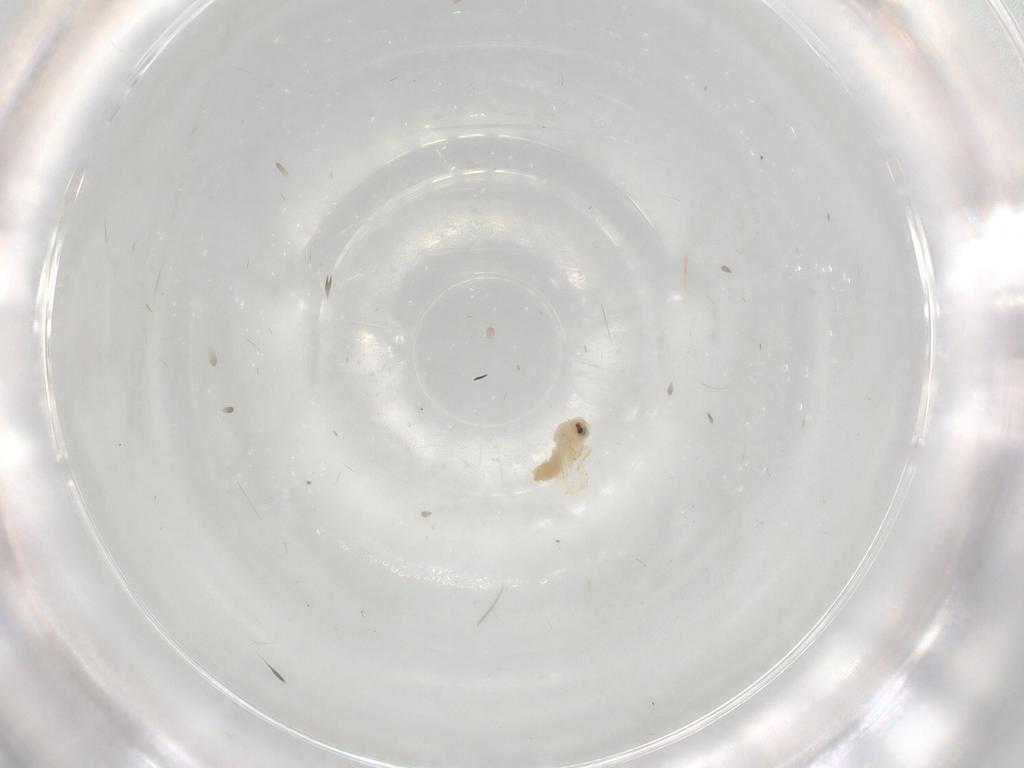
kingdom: Animalia
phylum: Arthropoda
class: Insecta
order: Hemiptera
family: Aleyrodidae
